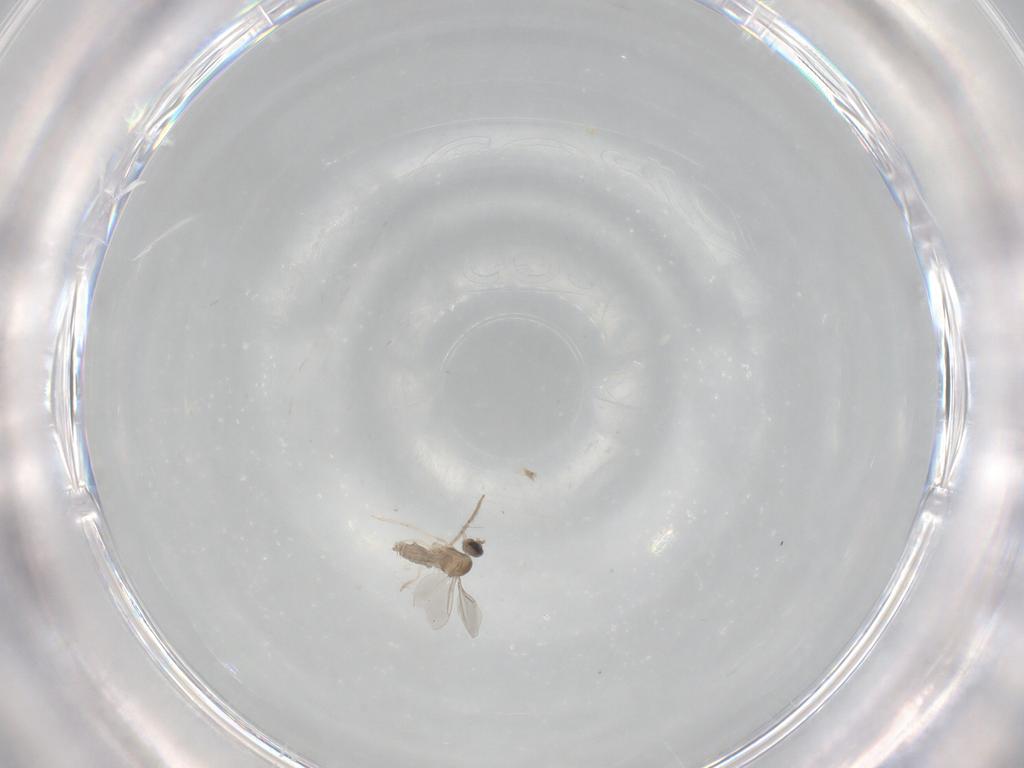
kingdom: Animalia
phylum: Arthropoda
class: Insecta
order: Diptera
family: Cecidomyiidae
